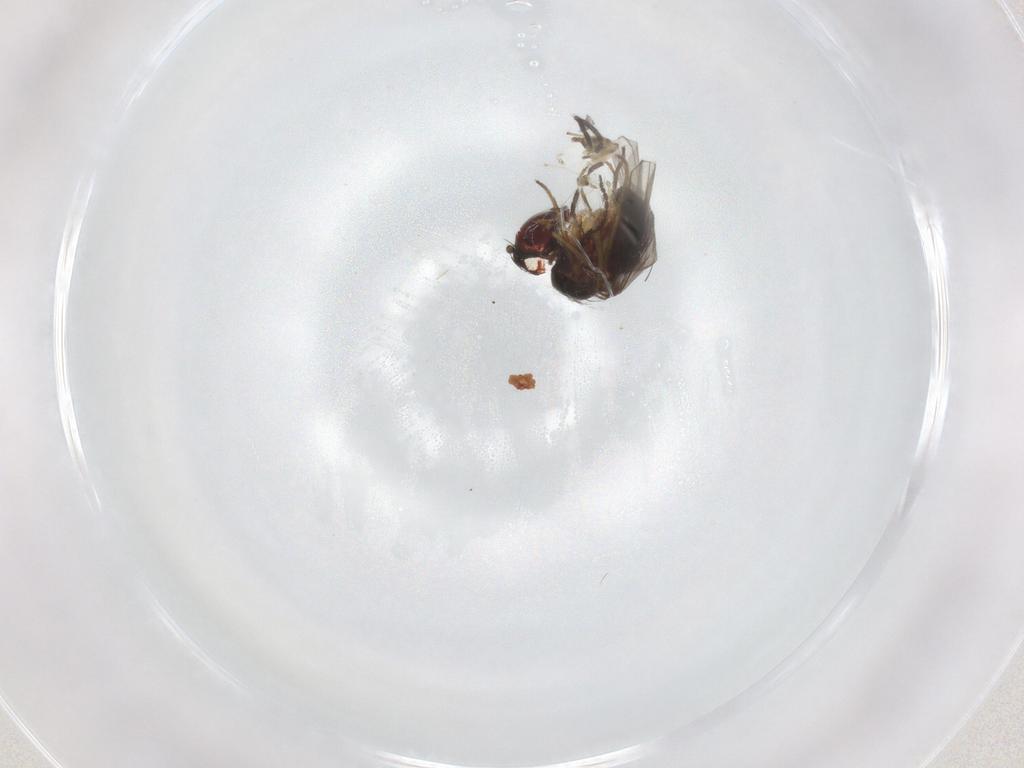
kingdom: Animalia
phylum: Arthropoda
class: Insecta
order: Diptera
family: Dolichopodidae
